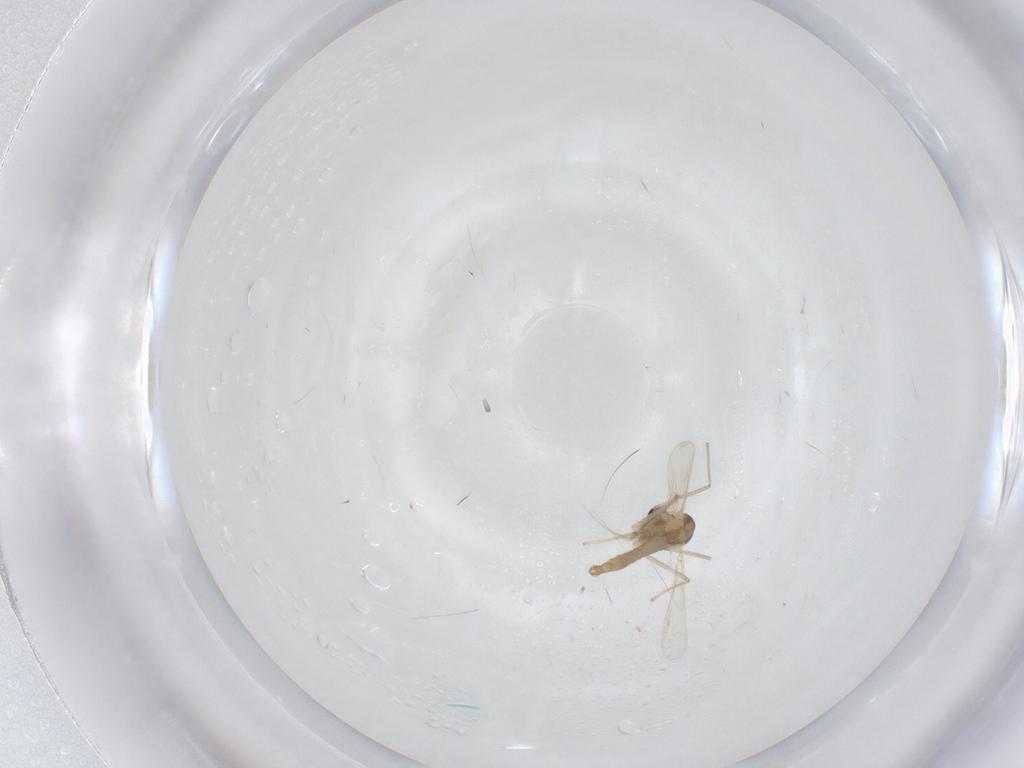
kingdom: Animalia
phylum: Arthropoda
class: Insecta
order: Diptera
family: Chironomidae
